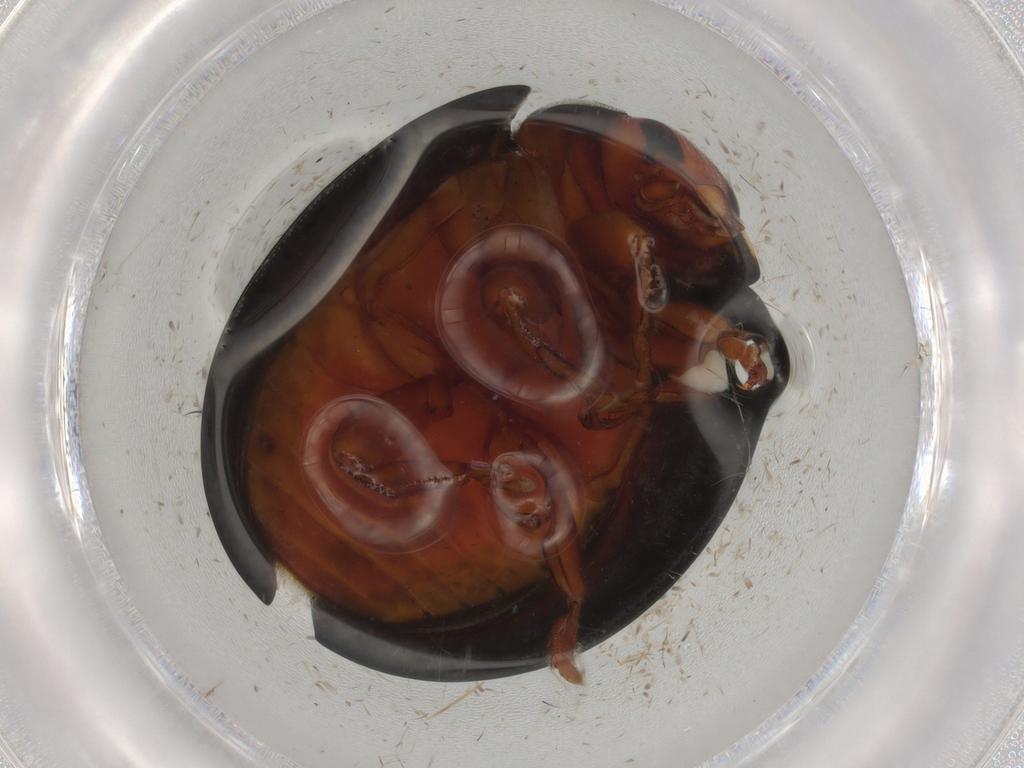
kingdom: Animalia
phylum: Arthropoda
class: Insecta
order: Coleoptera
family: Coccinellidae
